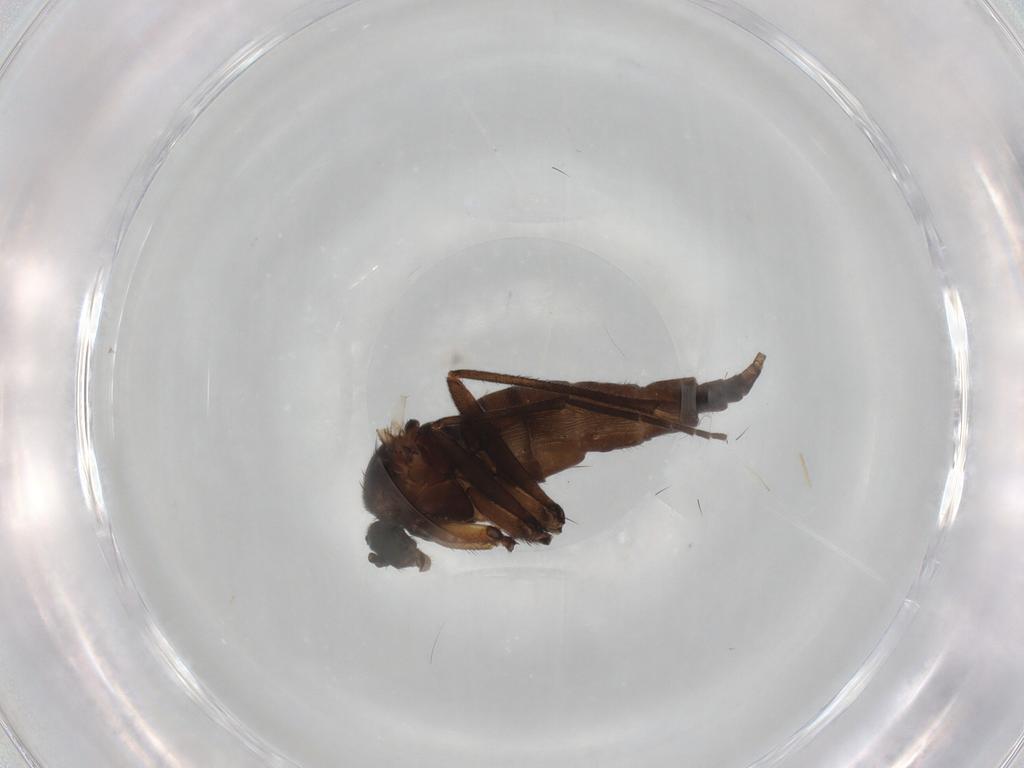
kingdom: Animalia
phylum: Arthropoda
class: Insecta
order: Diptera
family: Sciaridae
